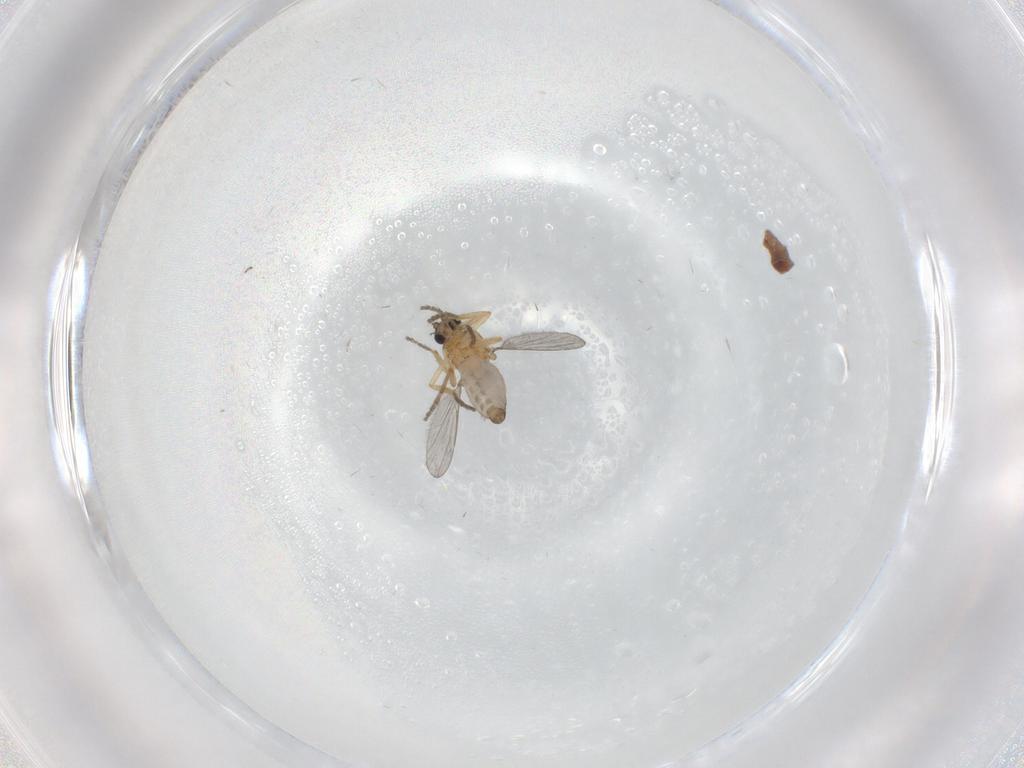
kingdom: Animalia
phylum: Arthropoda
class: Insecta
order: Diptera
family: Ceratopogonidae
